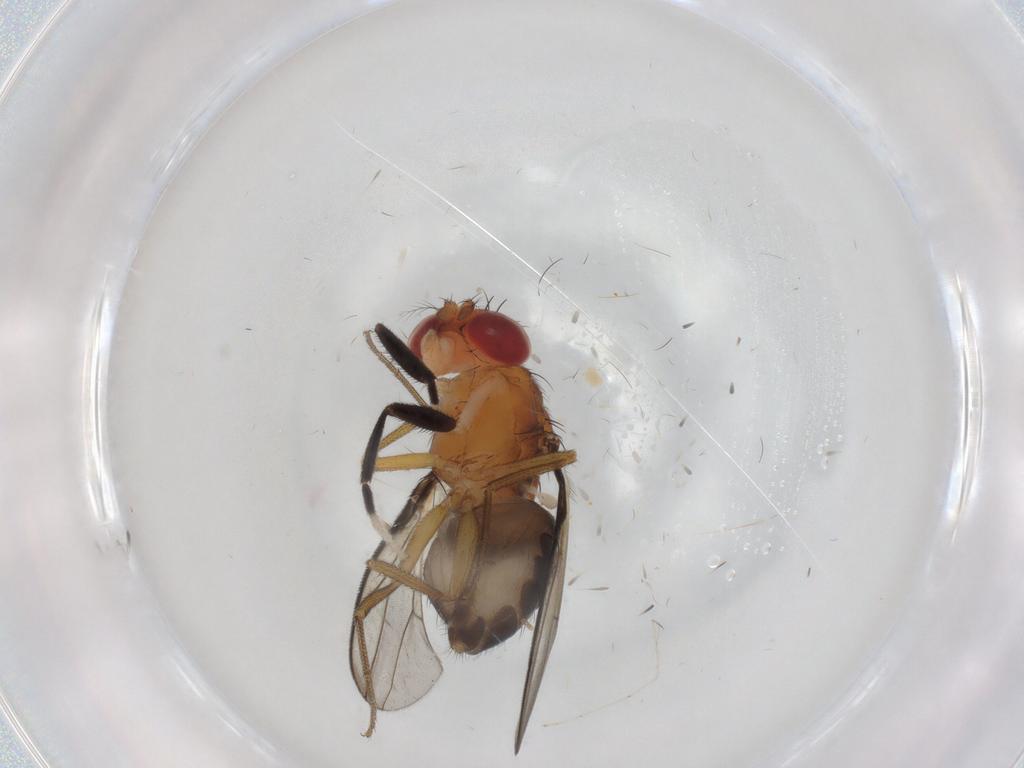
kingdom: Animalia
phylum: Arthropoda
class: Insecta
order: Diptera
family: Drosophilidae
